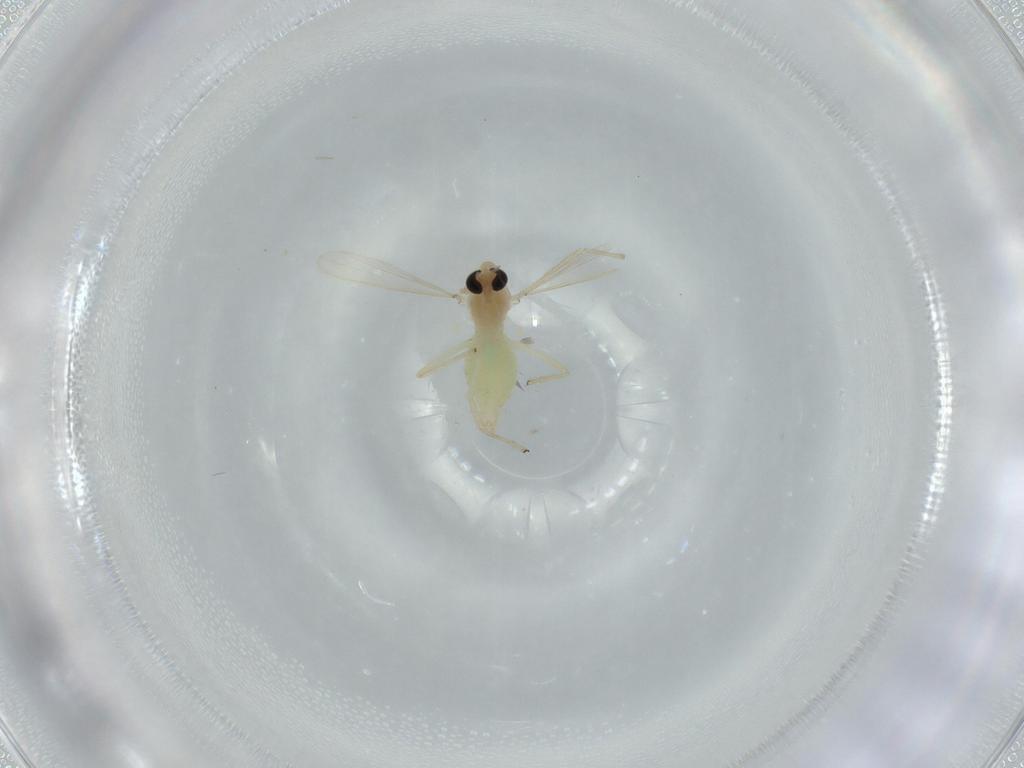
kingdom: Animalia
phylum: Arthropoda
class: Insecta
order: Diptera
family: Chironomidae
